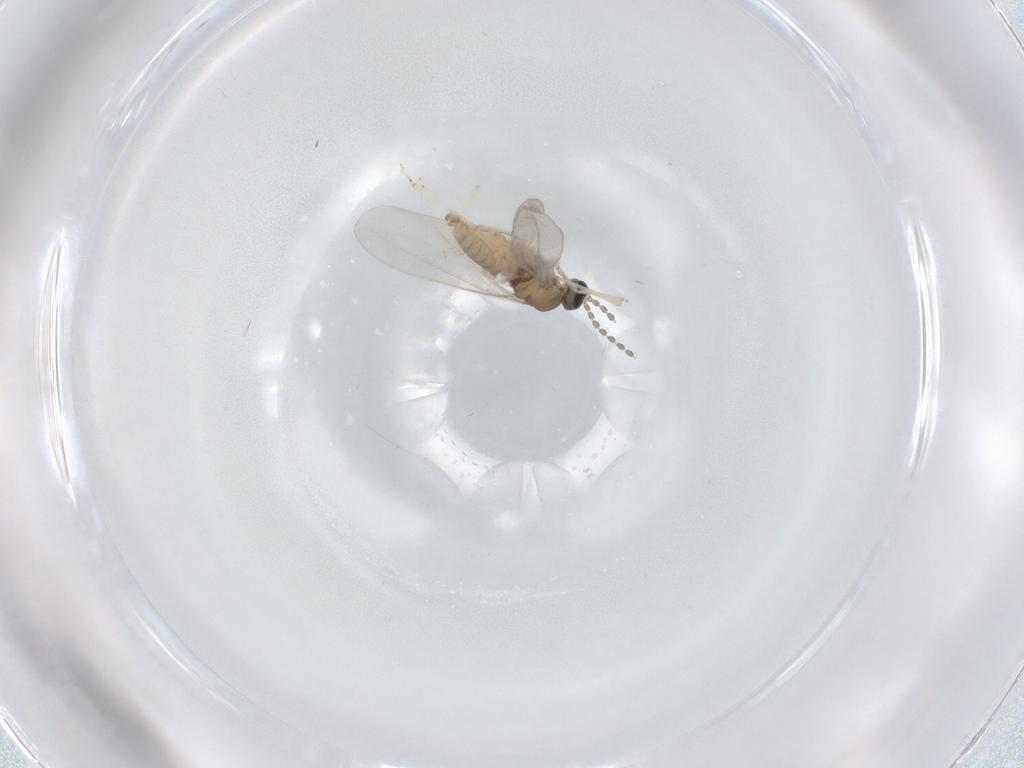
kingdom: Animalia
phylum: Arthropoda
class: Insecta
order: Diptera
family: Cecidomyiidae
